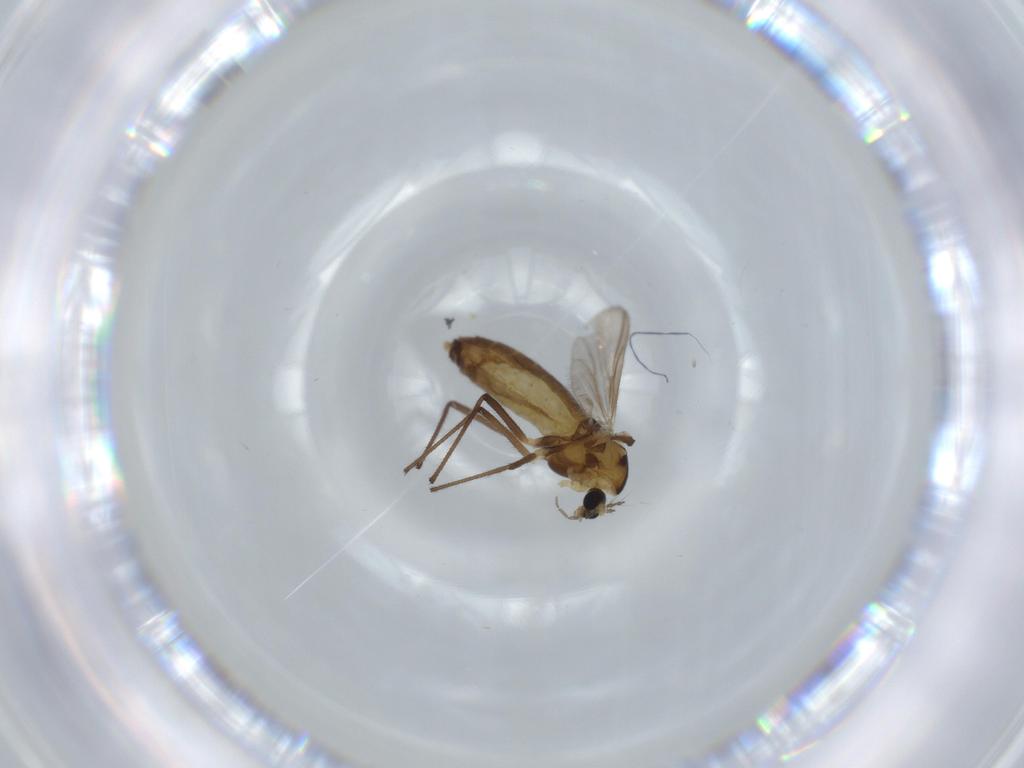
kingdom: Animalia
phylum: Arthropoda
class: Insecta
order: Diptera
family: Chironomidae
